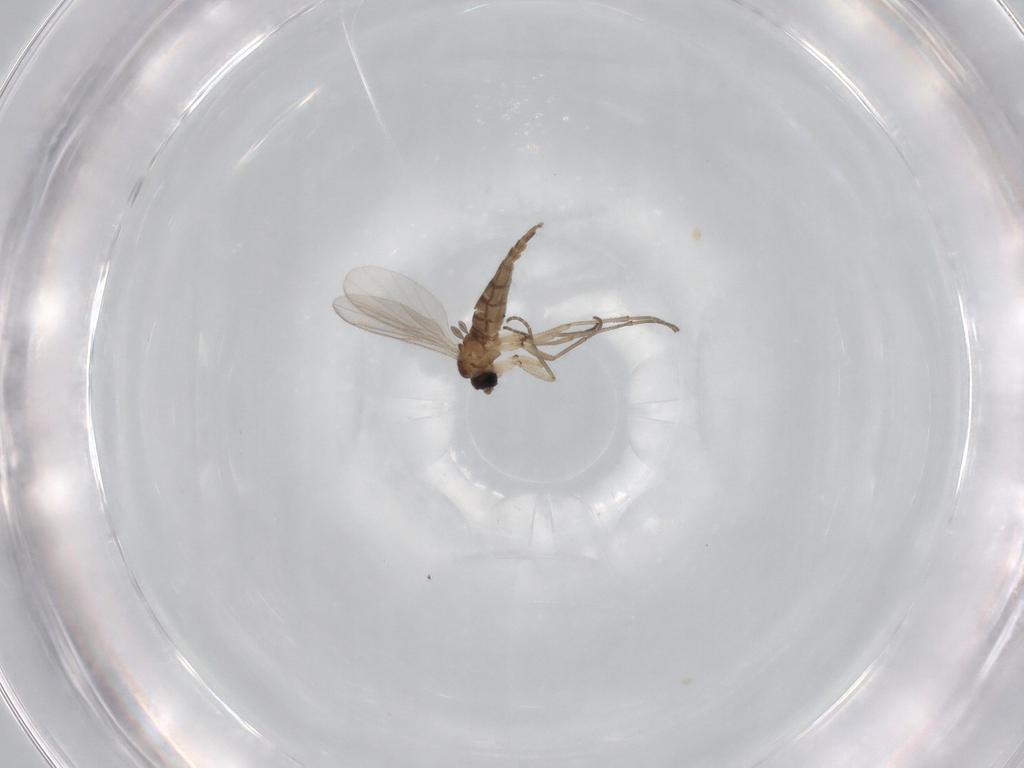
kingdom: Animalia
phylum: Arthropoda
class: Insecta
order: Diptera
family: Sciaridae
